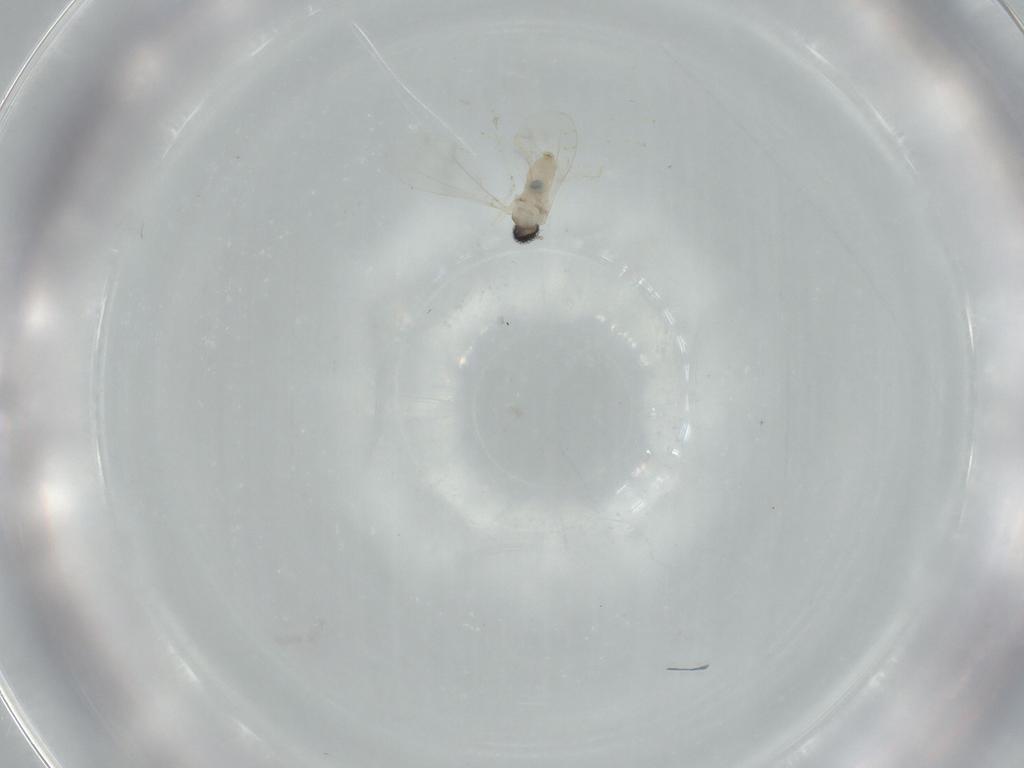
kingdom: Animalia
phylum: Arthropoda
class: Insecta
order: Diptera
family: Cecidomyiidae
